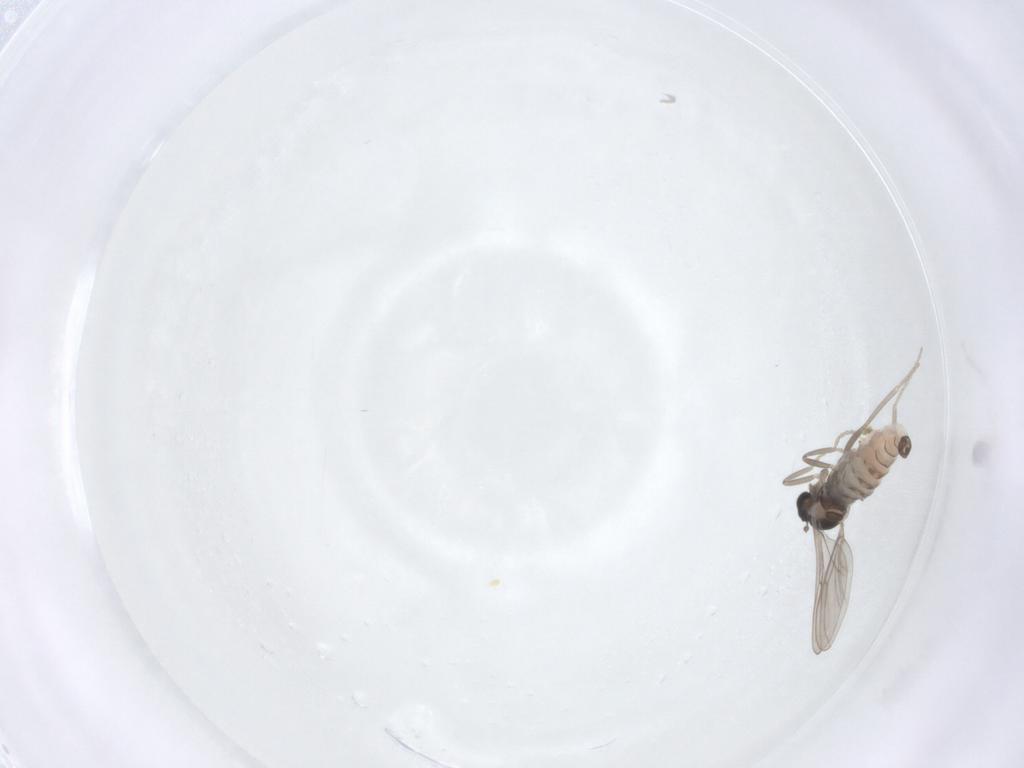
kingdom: Animalia
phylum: Arthropoda
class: Insecta
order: Diptera
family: Cecidomyiidae
